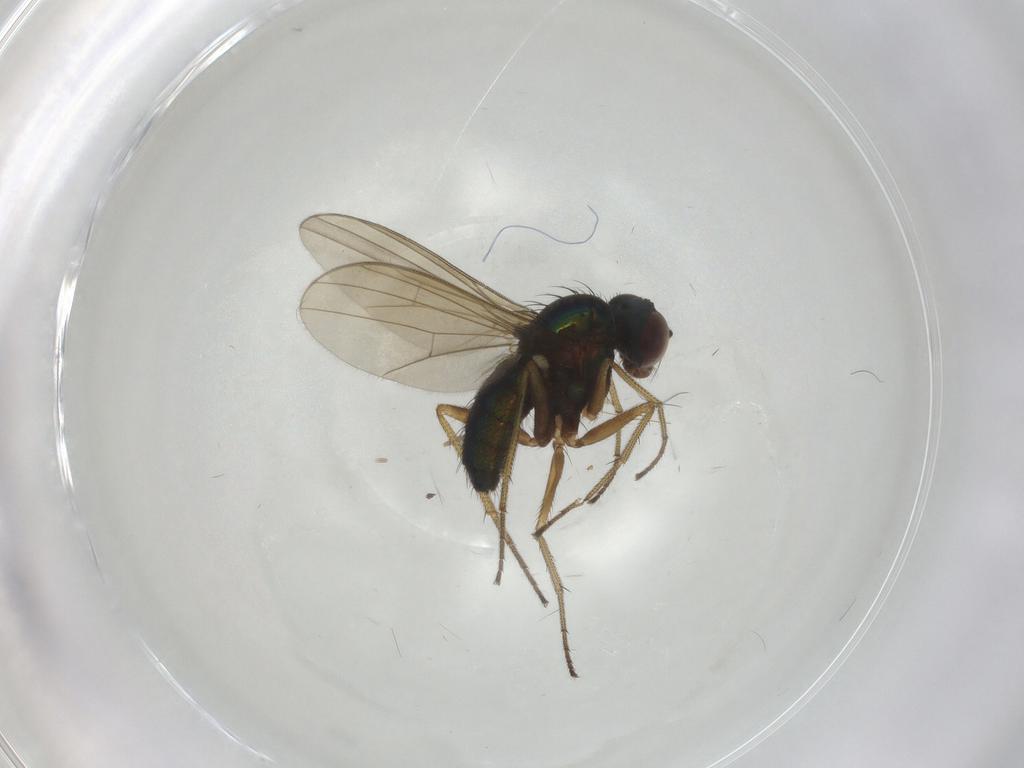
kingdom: Animalia
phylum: Arthropoda
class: Insecta
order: Diptera
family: Dolichopodidae
